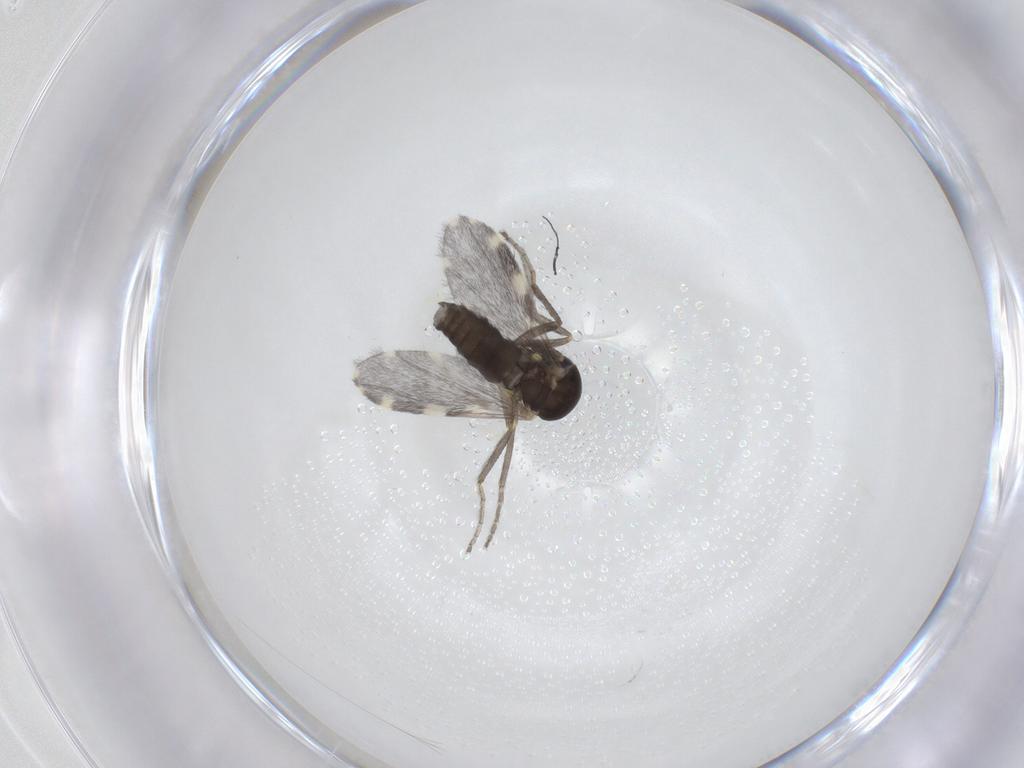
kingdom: Animalia
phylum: Arthropoda
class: Insecta
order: Diptera
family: Ceratopogonidae
